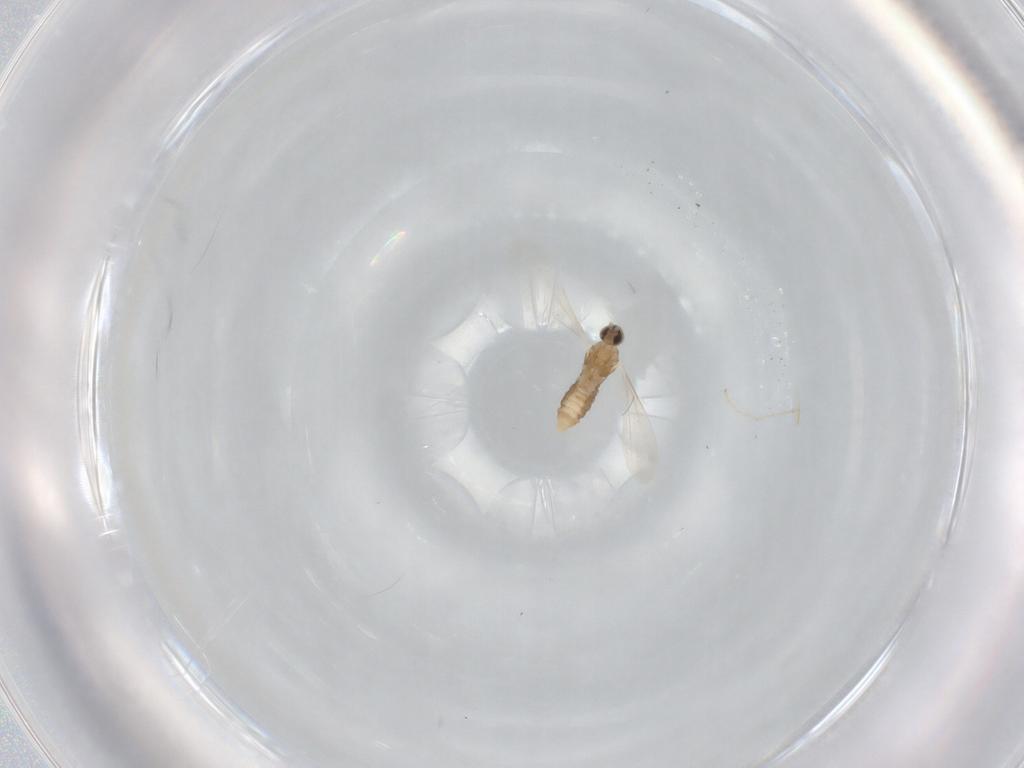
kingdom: Animalia
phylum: Arthropoda
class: Insecta
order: Diptera
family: Cecidomyiidae
